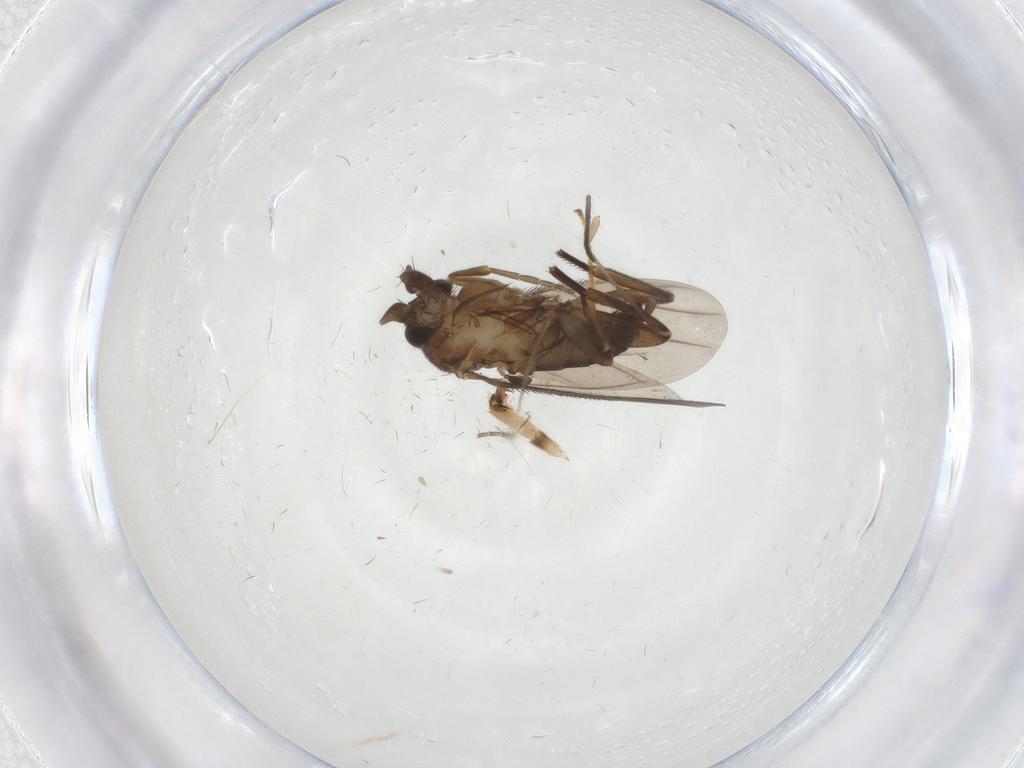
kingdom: Animalia
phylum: Arthropoda
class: Insecta
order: Diptera
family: Phoridae
